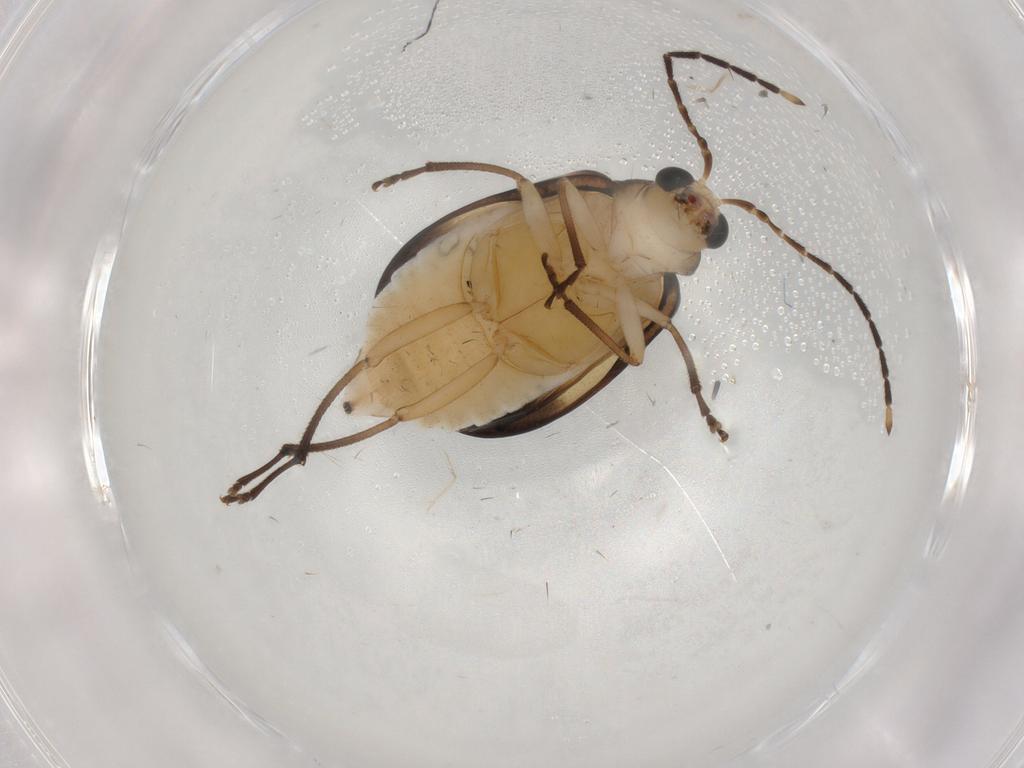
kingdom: Animalia
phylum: Arthropoda
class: Insecta
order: Coleoptera
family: Chrysomelidae
